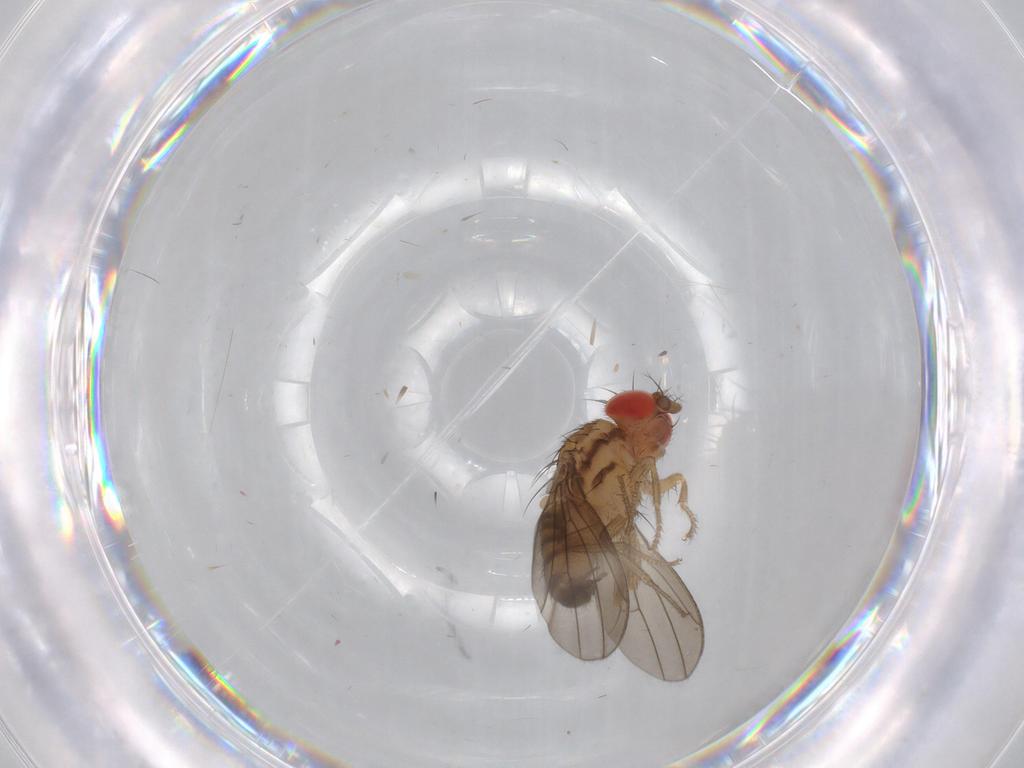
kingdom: Animalia
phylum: Arthropoda
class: Insecta
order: Diptera
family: Drosophilidae
